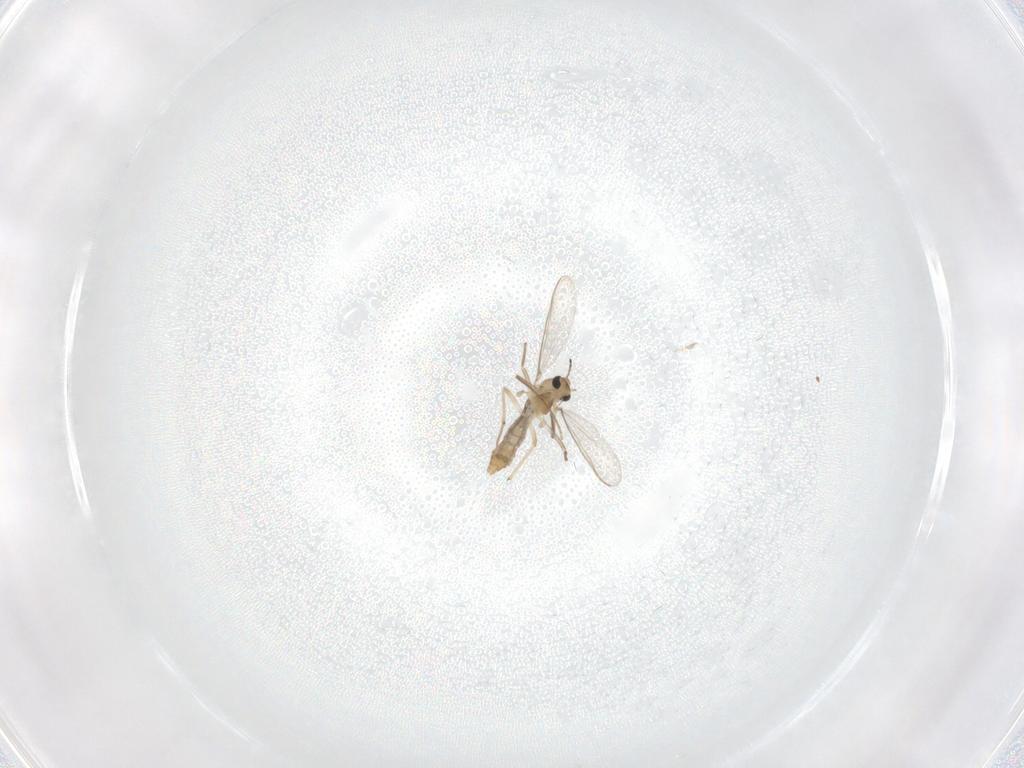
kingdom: Animalia
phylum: Arthropoda
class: Insecta
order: Diptera
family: Chironomidae
